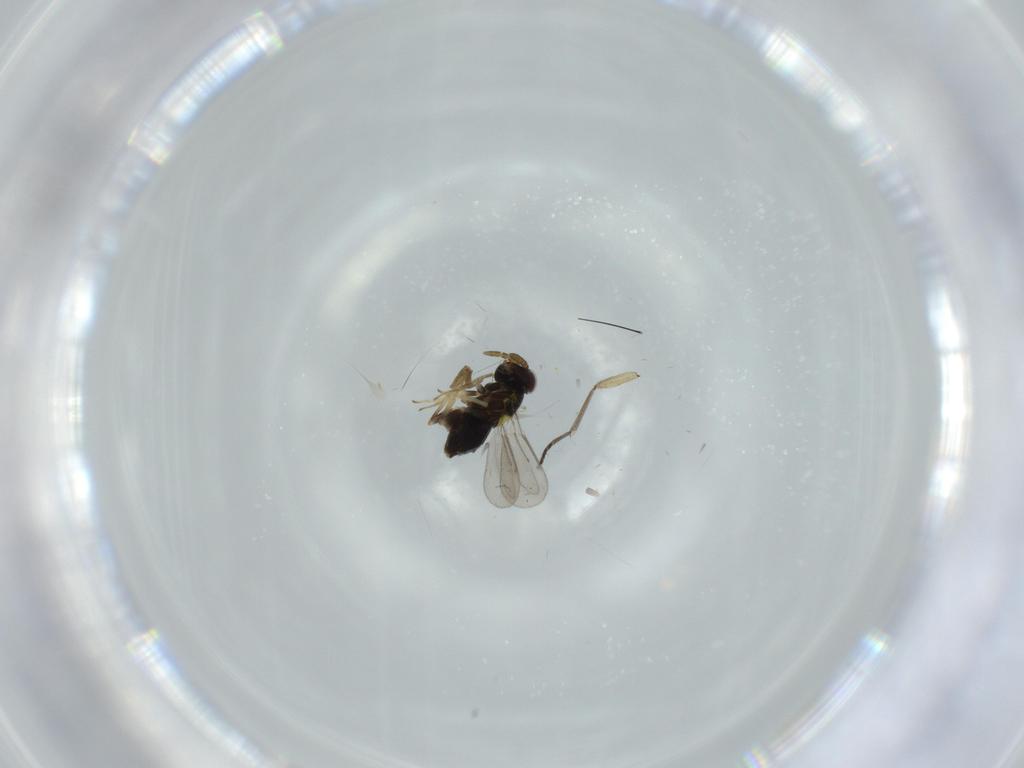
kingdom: Animalia
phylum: Arthropoda
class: Insecta
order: Hymenoptera
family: Aphelinidae
